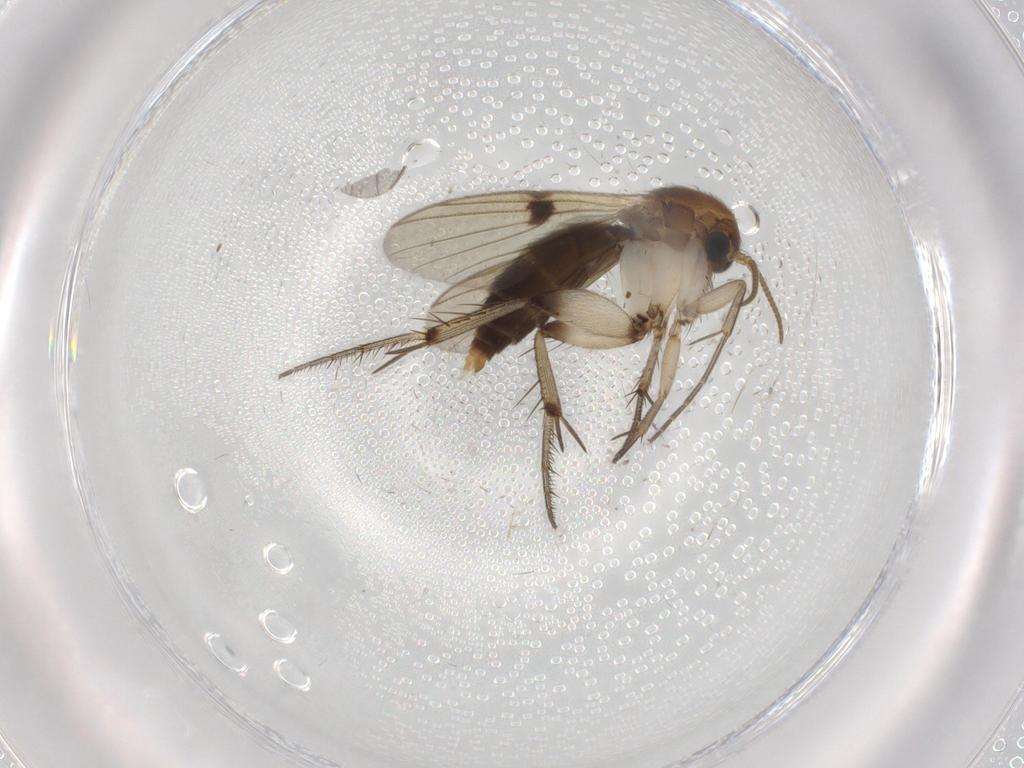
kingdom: Animalia
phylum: Arthropoda
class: Insecta
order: Diptera
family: Mycetophilidae
